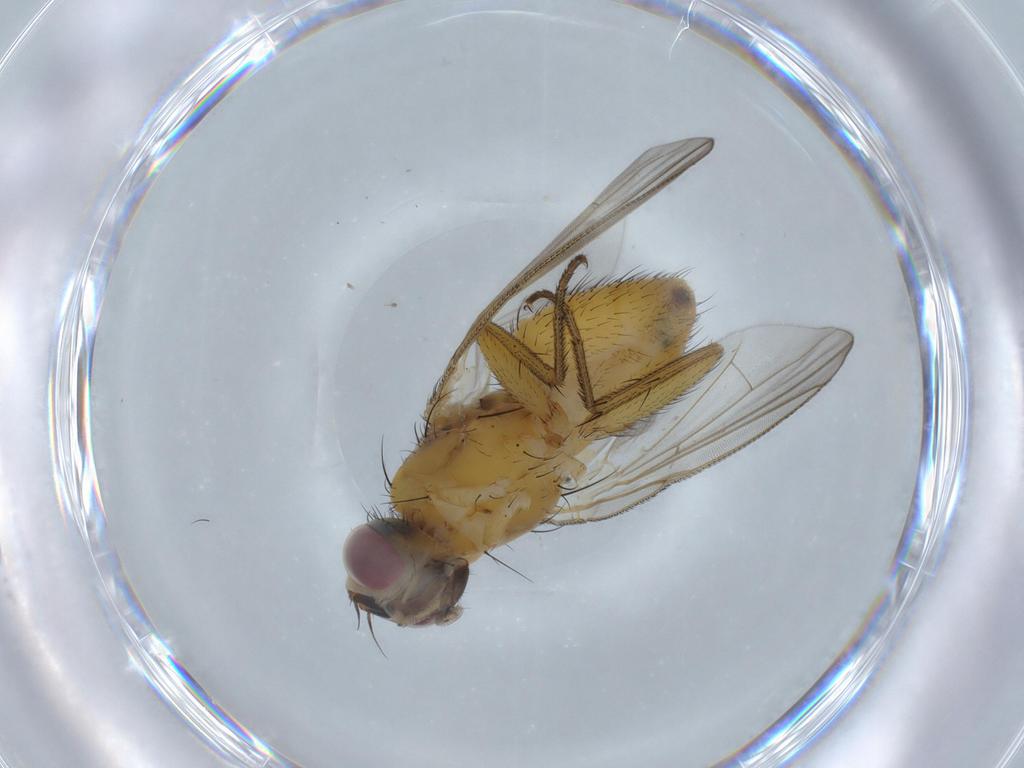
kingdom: Animalia
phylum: Arthropoda
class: Insecta
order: Diptera
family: Muscidae
